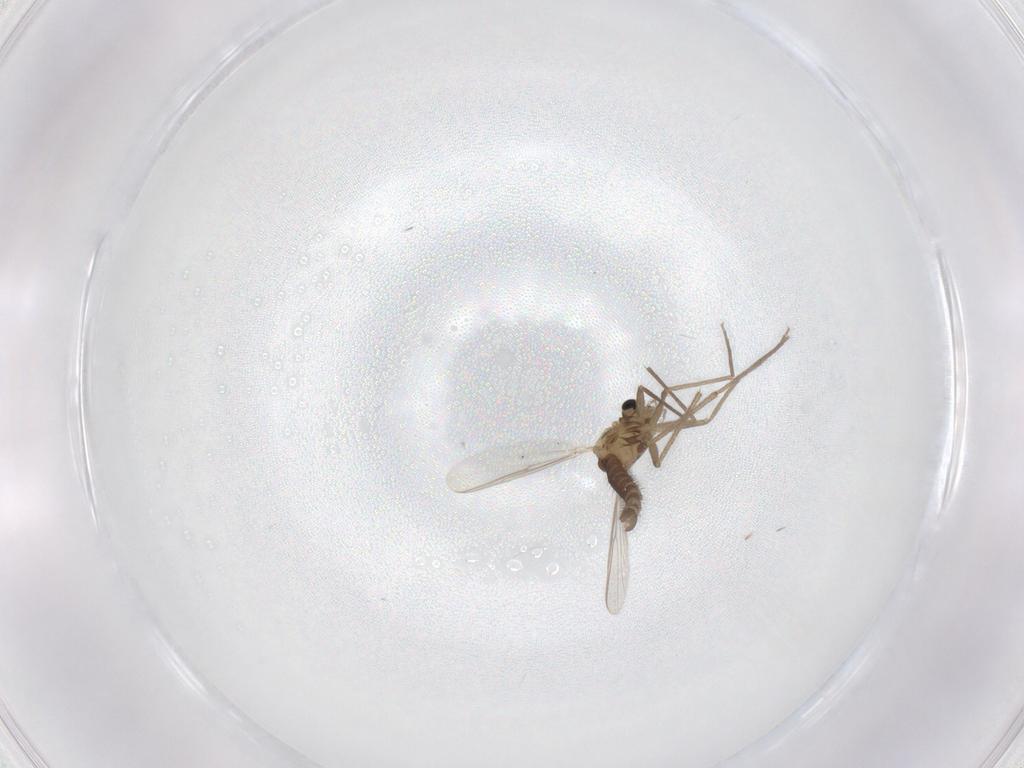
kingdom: Animalia
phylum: Arthropoda
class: Insecta
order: Diptera
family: Chironomidae
